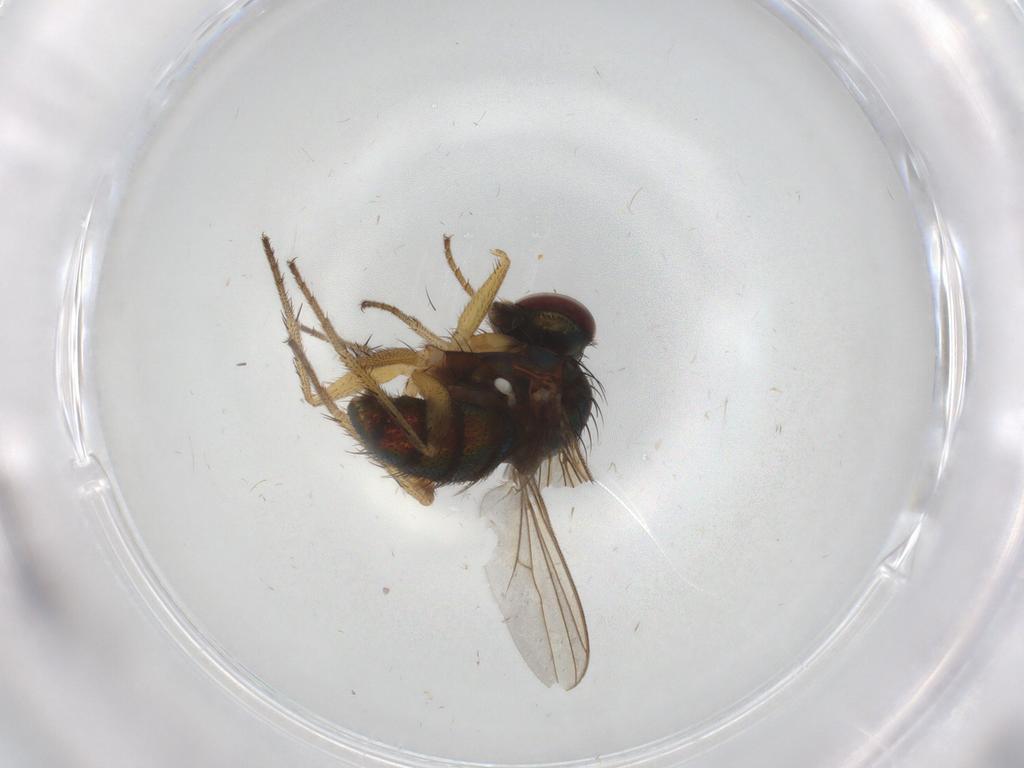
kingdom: Animalia
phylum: Arthropoda
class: Insecta
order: Diptera
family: Dolichopodidae
